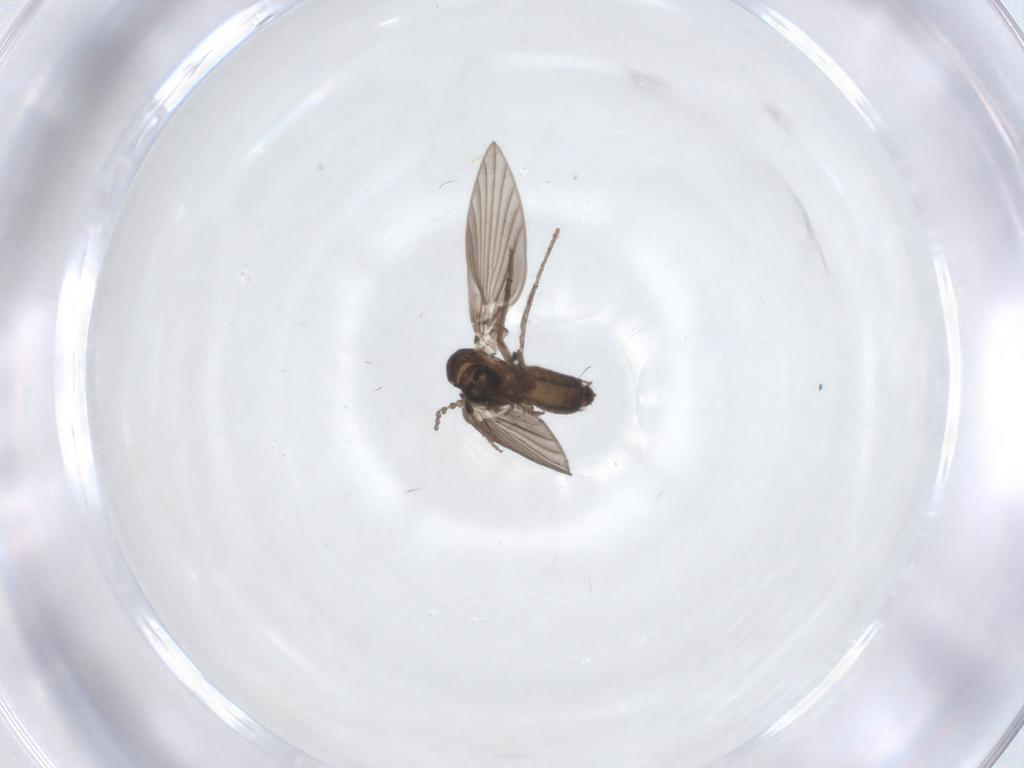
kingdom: Animalia
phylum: Arthropoda
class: Insecta
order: Diptera
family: Psychodidae
